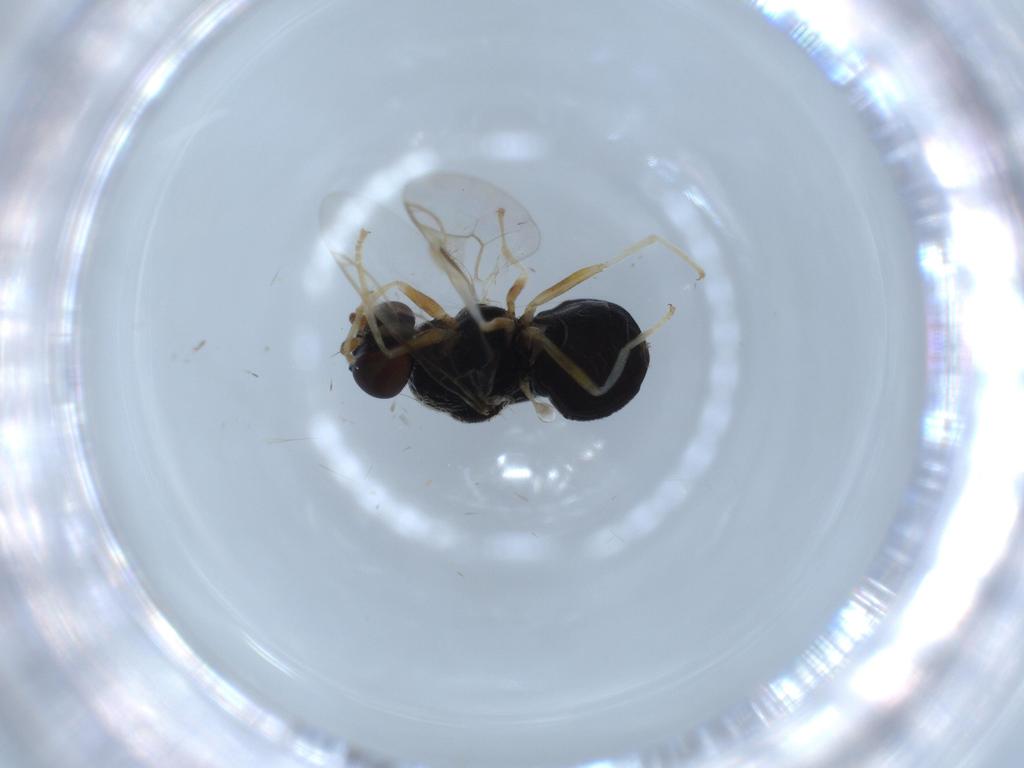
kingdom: Animalia
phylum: Arthropoda
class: Insecta
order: Diptera
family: Stratiomyidae
